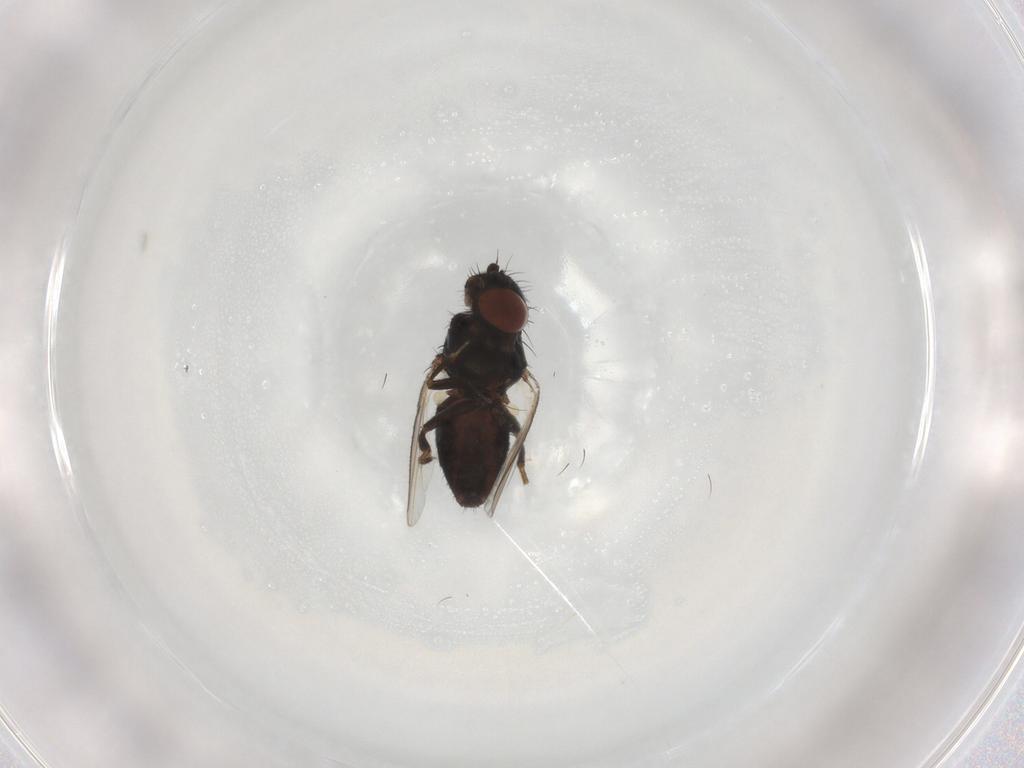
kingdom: Animalia
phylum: Arthropoda
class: Insecta
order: Diptera
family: Milichiidae
